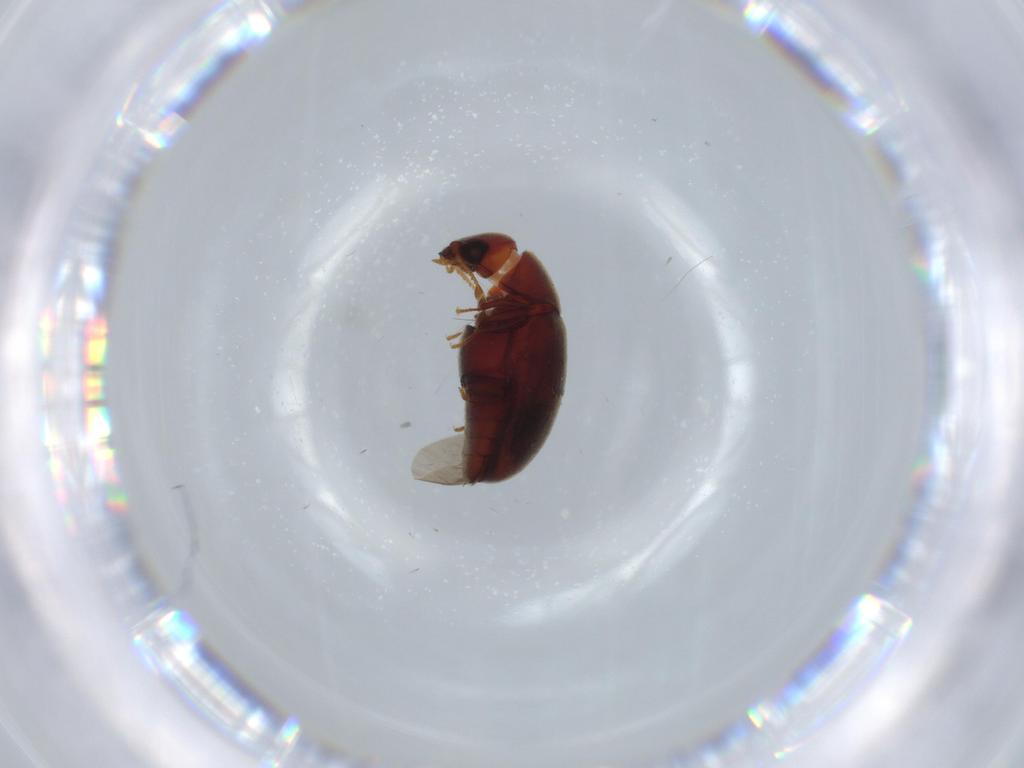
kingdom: Animalia
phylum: Arthropoda
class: Insecta
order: Coleoptera
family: Ptinidae
